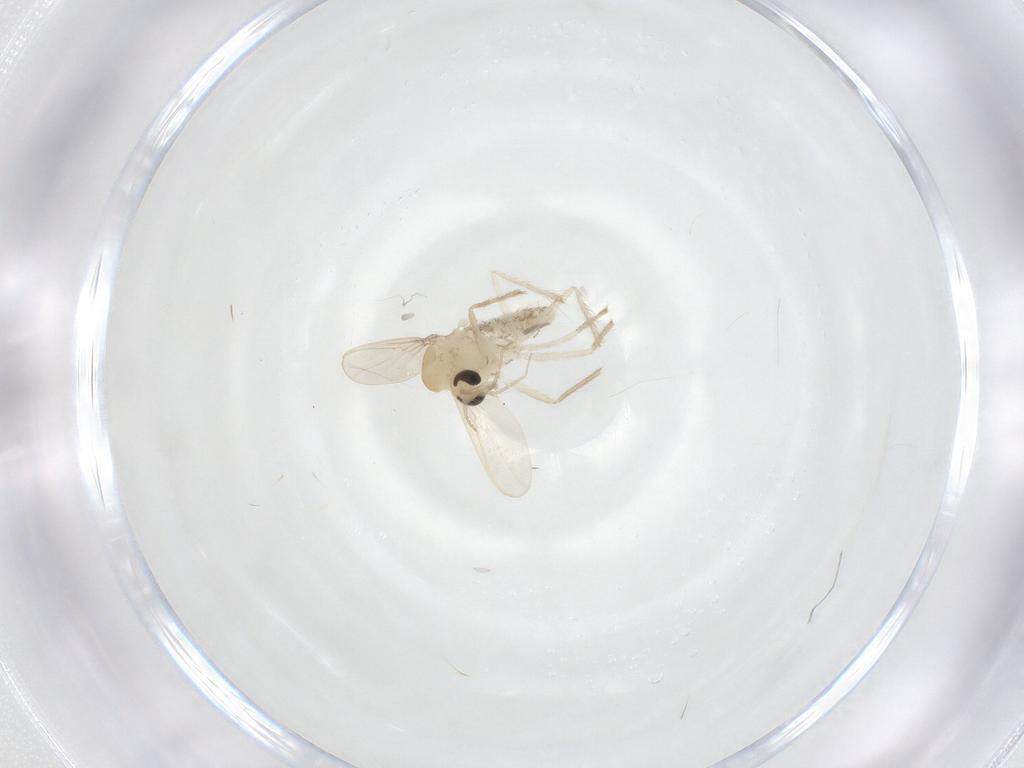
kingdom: Animalia
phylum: Arthropoda
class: Insecta
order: Diptera
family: Chironomidae
